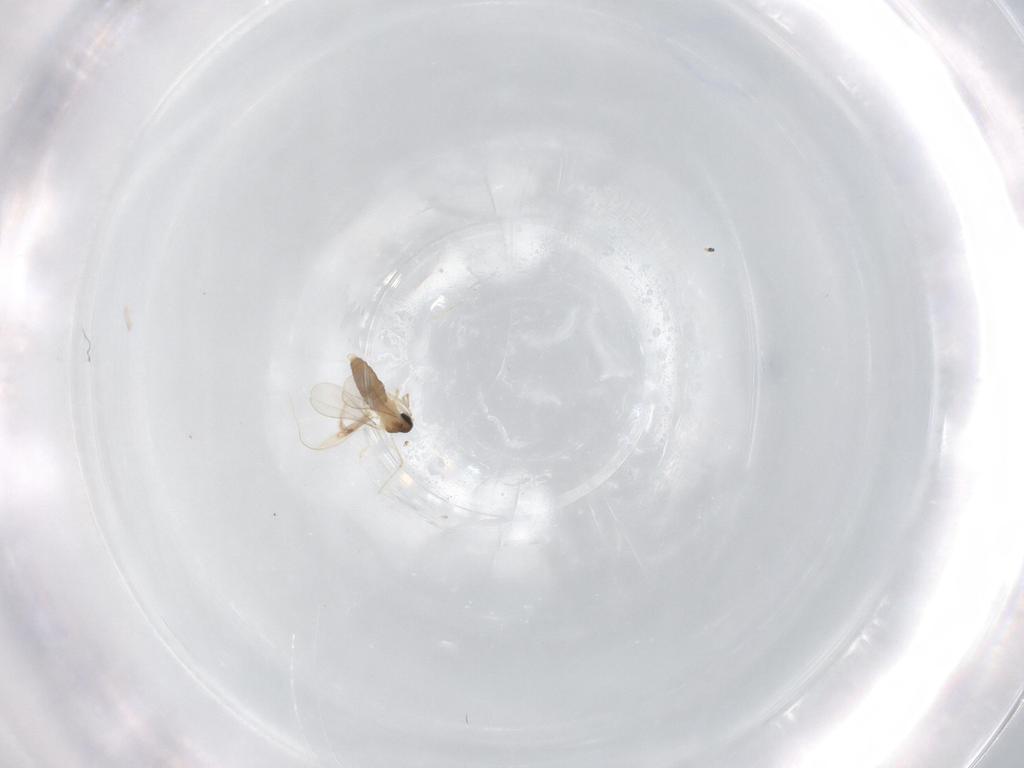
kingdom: Animalia
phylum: Arthropoda
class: Insecta
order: Diptera
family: Cecidomyiidae
